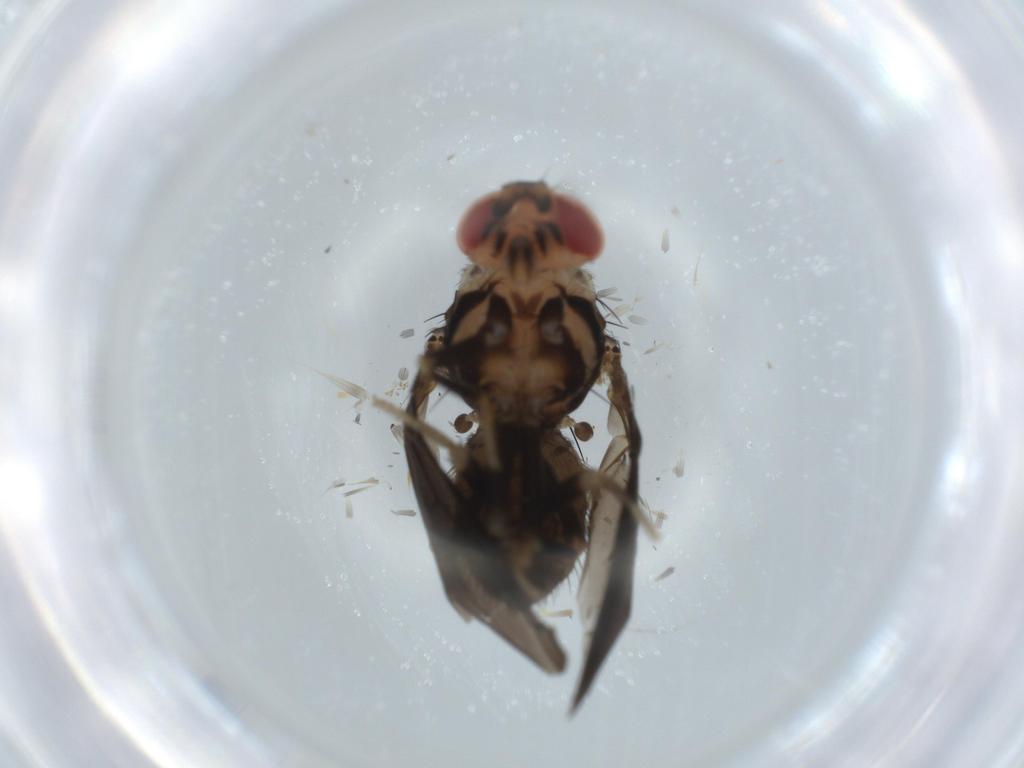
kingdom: Animalia
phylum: Arthropoda
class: Insecta
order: Diptera
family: Drosophilidae
